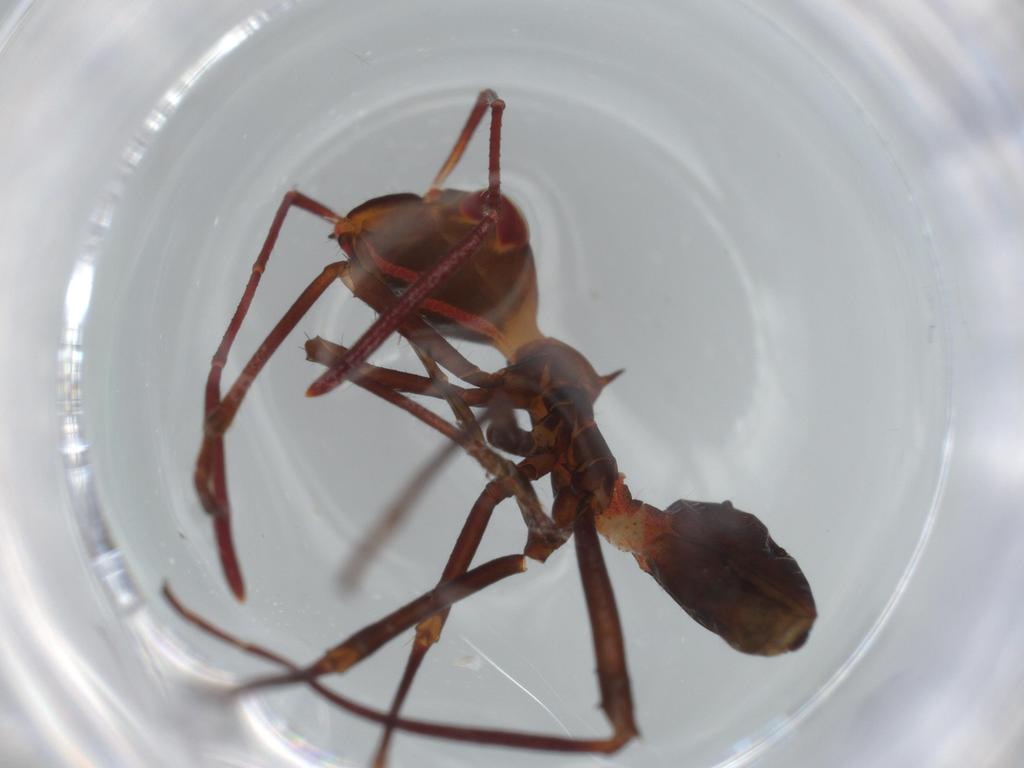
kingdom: Animalia
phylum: Arthropoda
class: Insecta
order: Hemiptera
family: Alydidae
